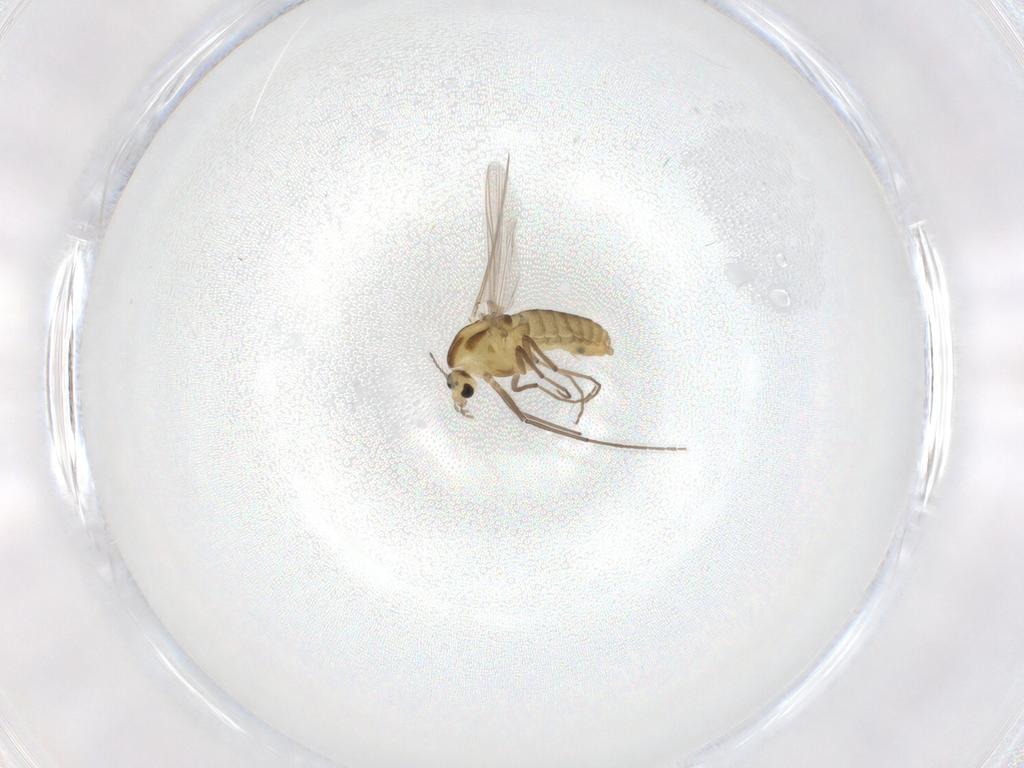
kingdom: Animalia
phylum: Arthropoda
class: Insecta
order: Diptera
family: Chironomidae
